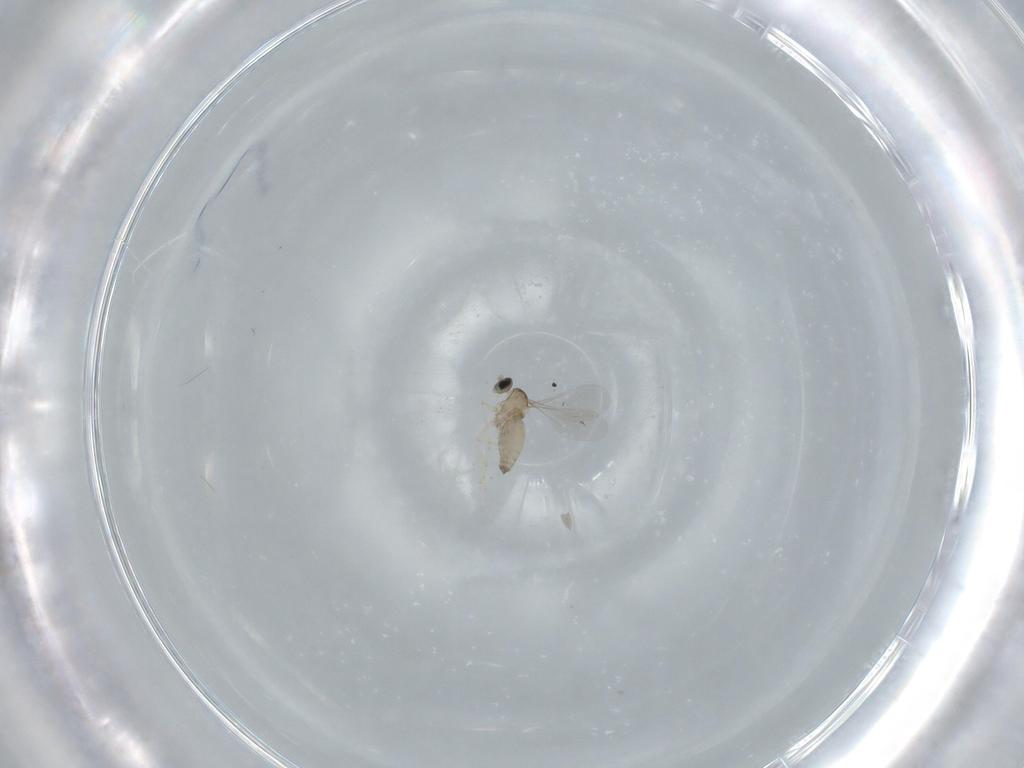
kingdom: Animalia
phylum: Arthropoda
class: Insecta
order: Diptera
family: Cecidomyiidae
